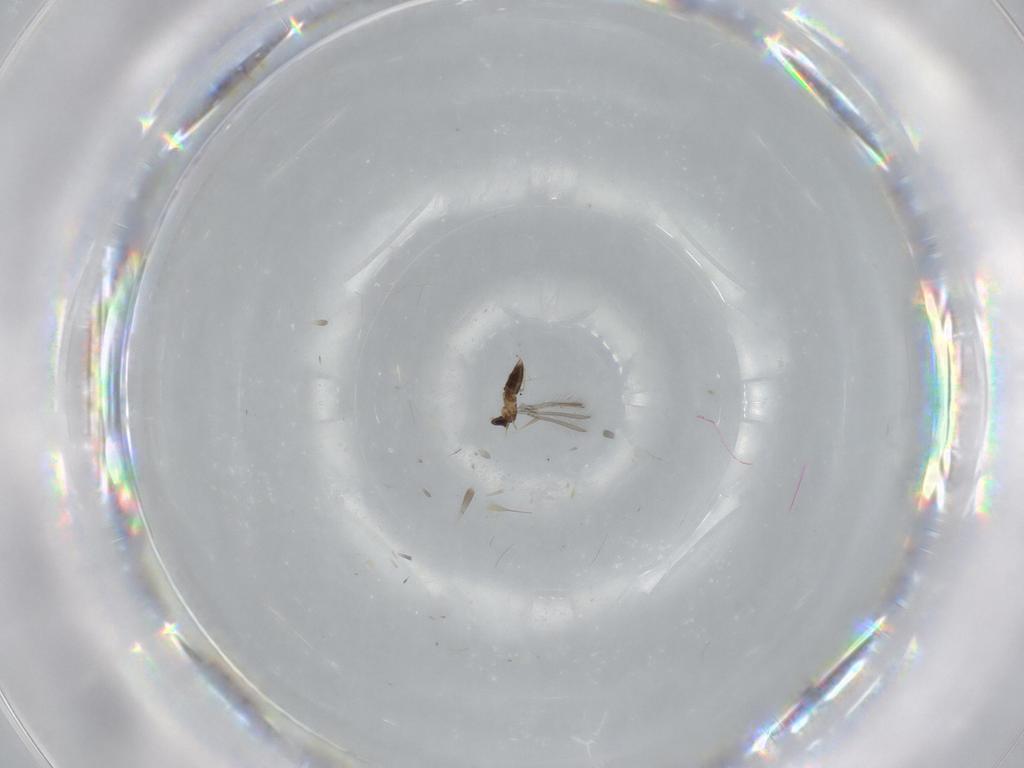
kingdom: Animalia
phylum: Arthropoda
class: Insecta
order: Hymenoptera
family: Mymaridae
